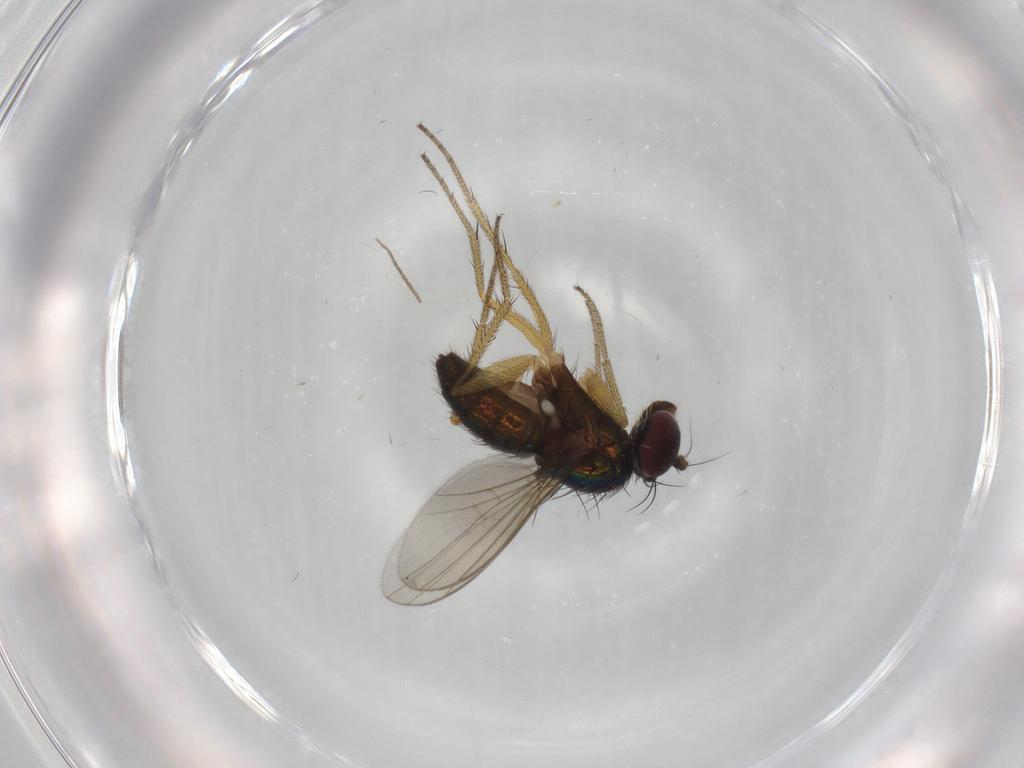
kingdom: Animalia
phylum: Arthropoda
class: Insecta
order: Diptera
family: Dolichopodidae
